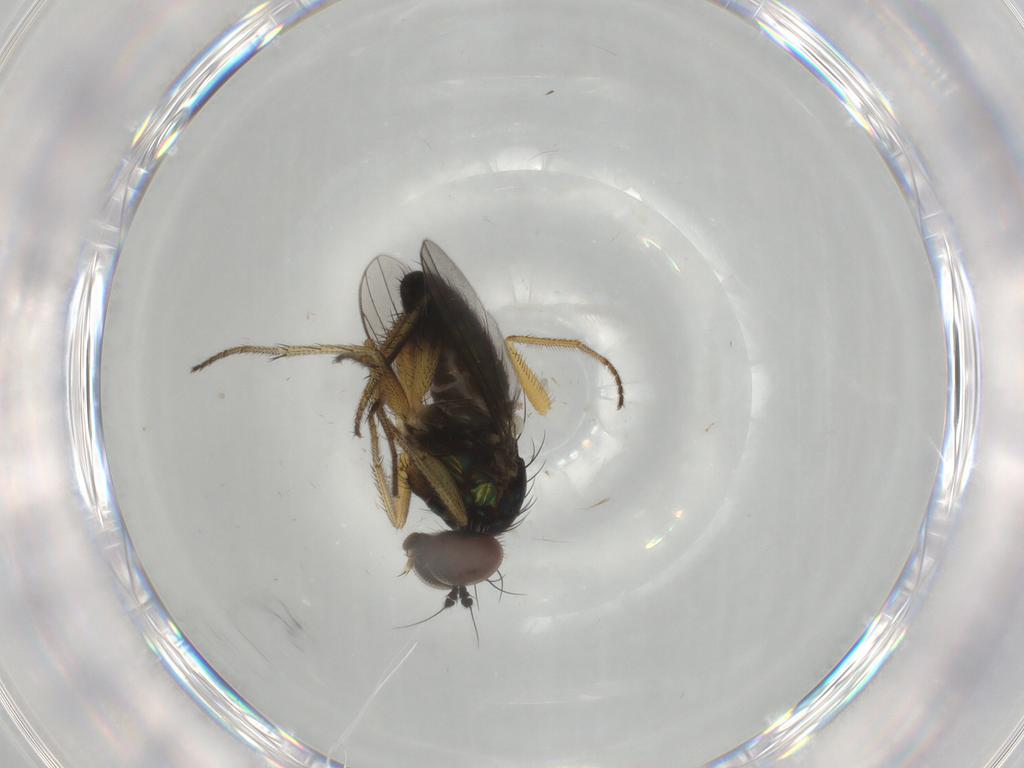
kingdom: Animalia
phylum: Arthropoda
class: Insecta
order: Diptera
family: Dolichopodidae
